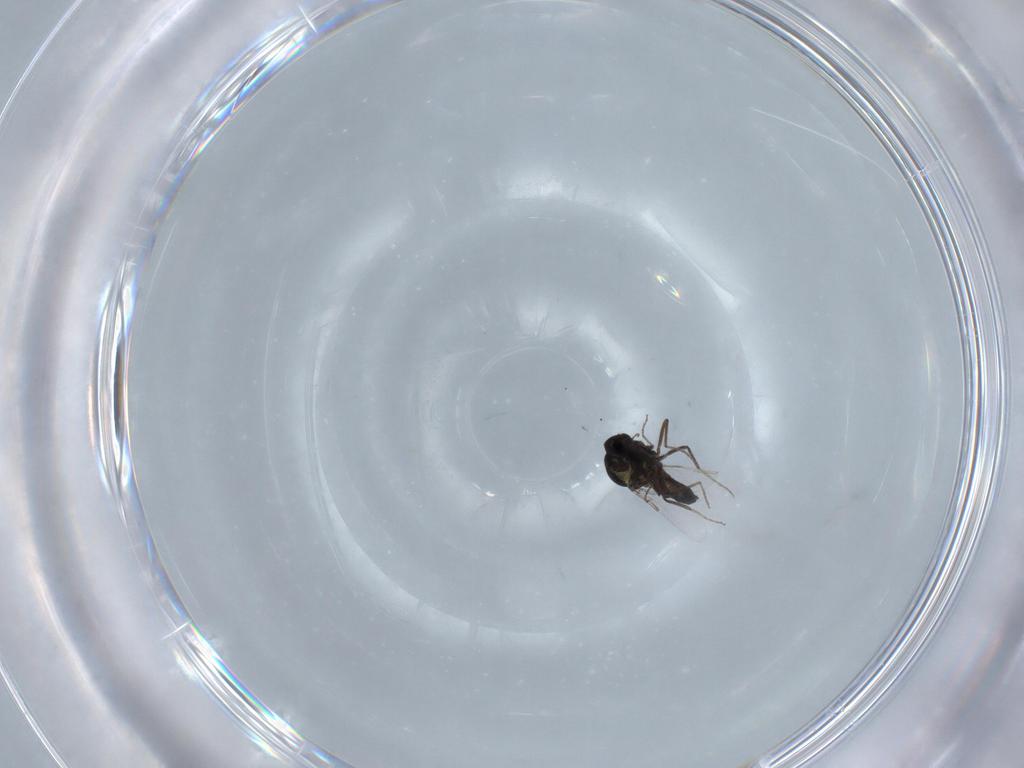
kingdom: Animalia
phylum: Arthropoda
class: Insecta
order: Diptera
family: Ceratopogonidae
